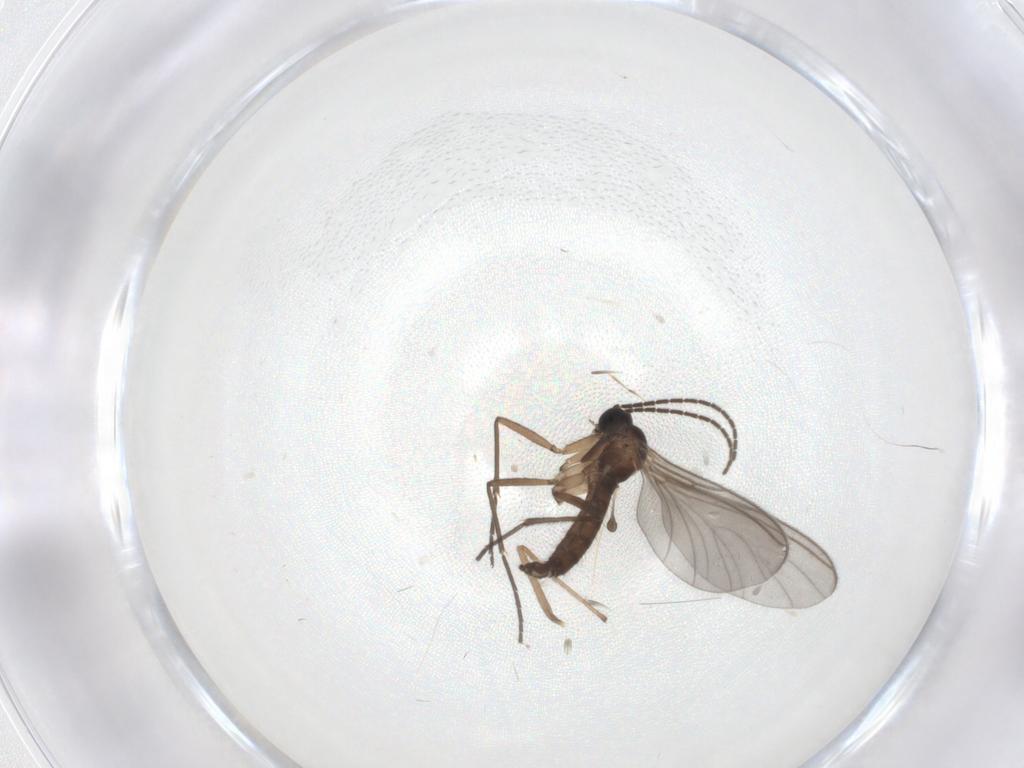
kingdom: Animalia
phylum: Arthropoda
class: Insecta
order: Diptera
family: Sciaridae
